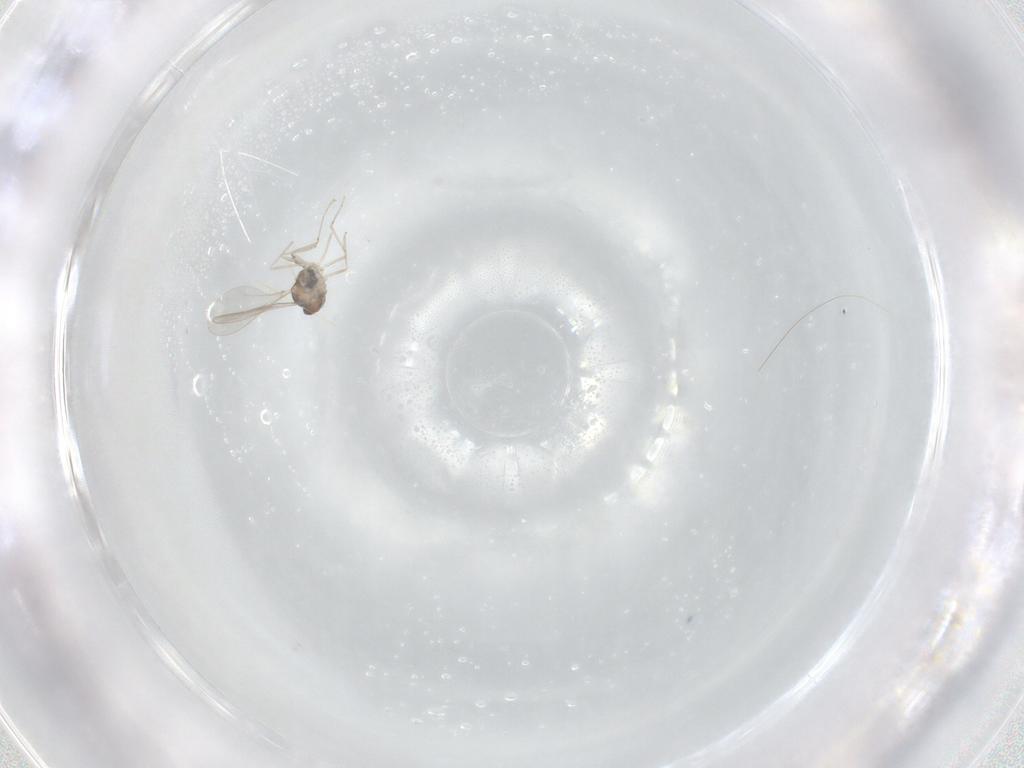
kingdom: Animalia
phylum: Arthropoda
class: Insecta
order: Diptera
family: Cecidomyiidae
